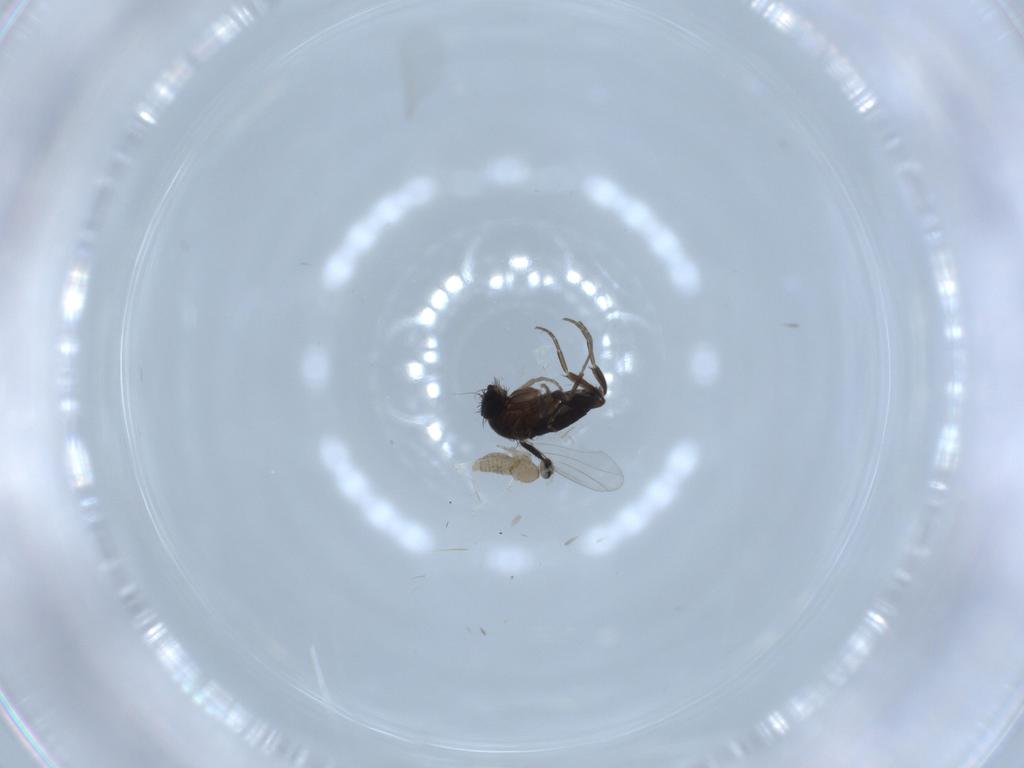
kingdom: Animalia
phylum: Arthropoda
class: Insecta
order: Diptera
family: Cecidomyiidae
